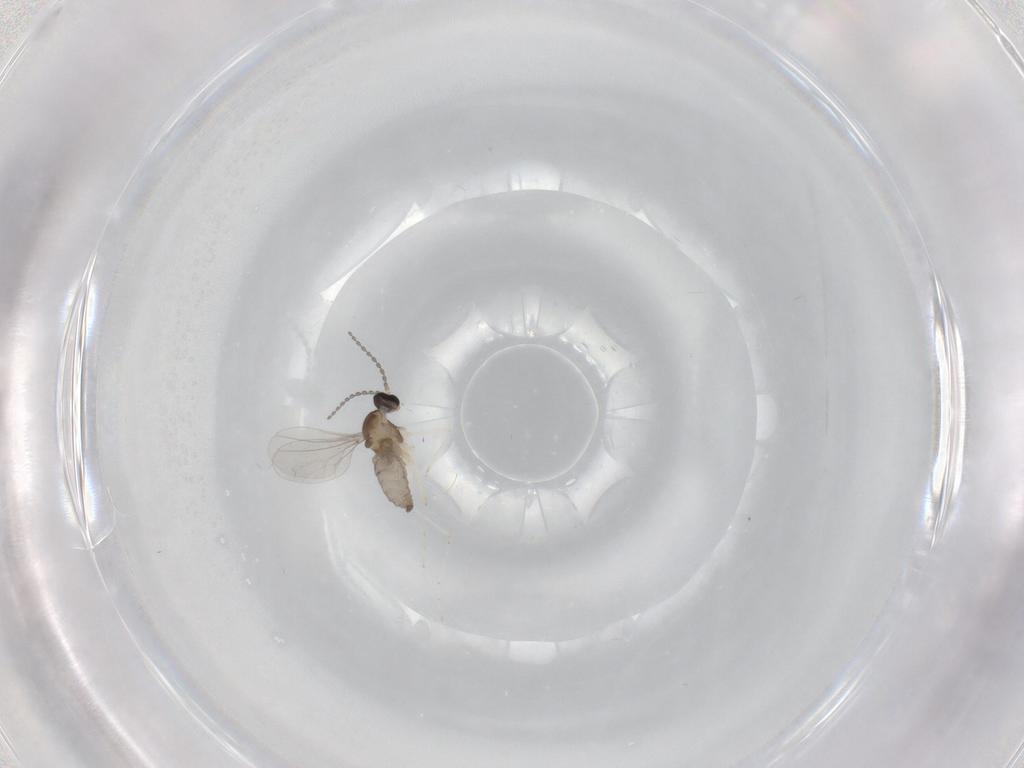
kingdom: Animalia
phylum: Arthropoda
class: Insecta
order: Diptera
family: Cecidomyiidae
